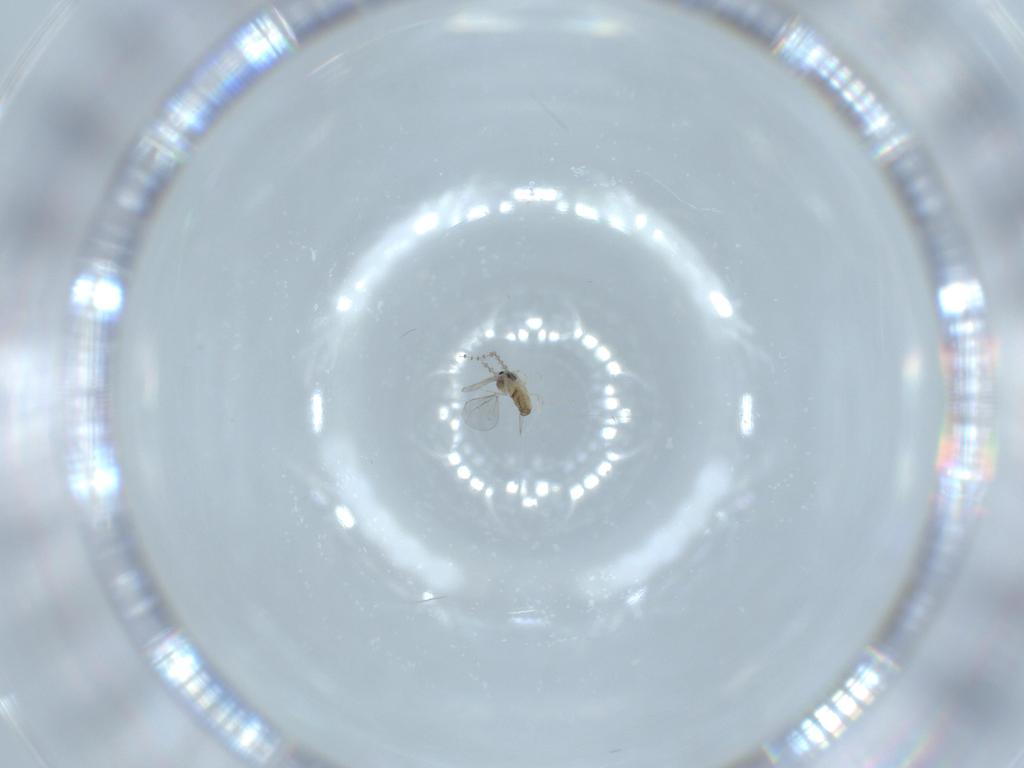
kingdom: Animalia
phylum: Arthropoda
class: Insecta
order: Diptera
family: Cecidomyiidae
